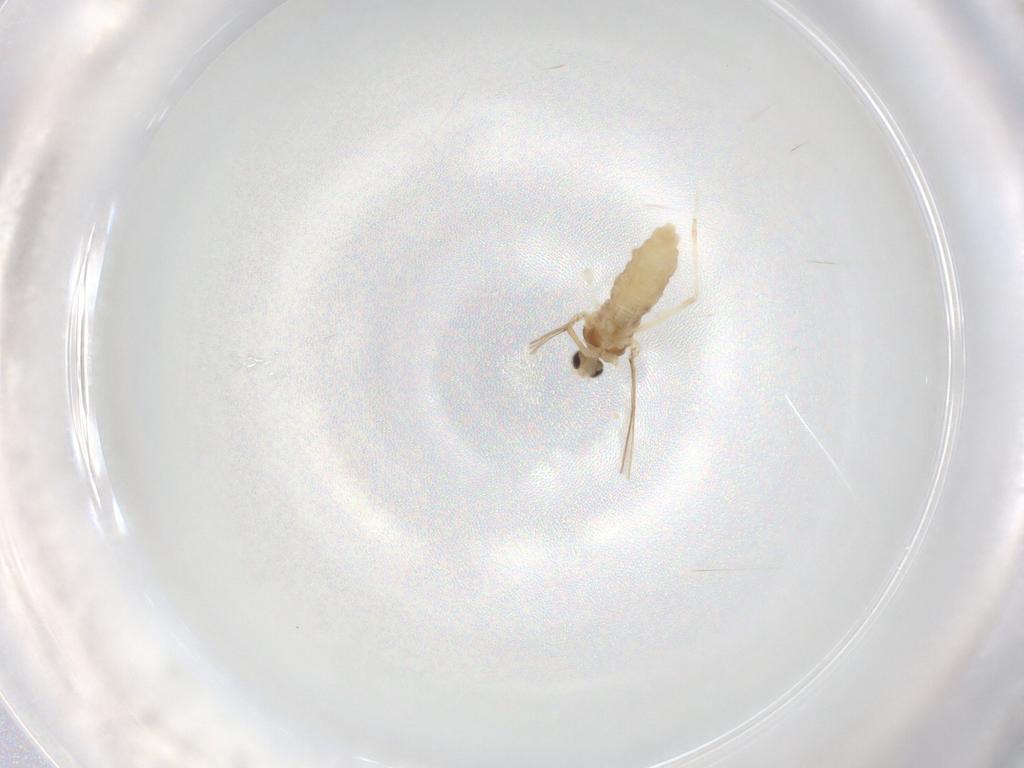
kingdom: Animalia
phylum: Arthropoda
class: Insecta
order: Diptera
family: Cecidomyiidae
